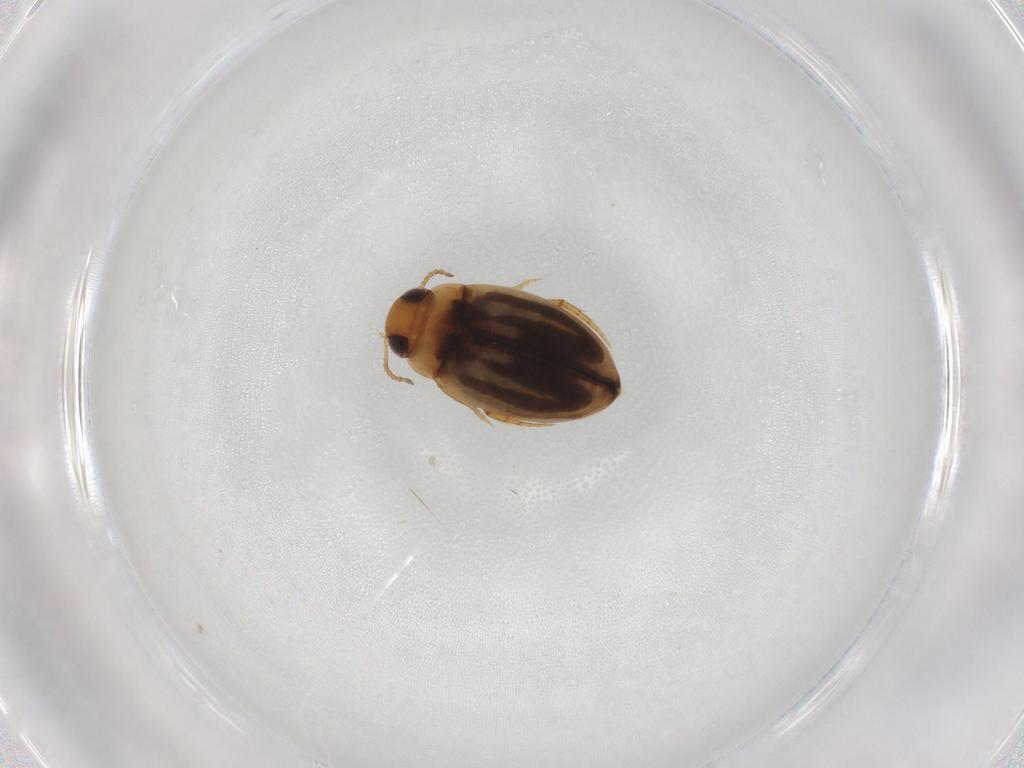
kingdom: Animalia
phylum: Arthropoda
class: Insecta
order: Coleoptera
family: Dytiscidae
